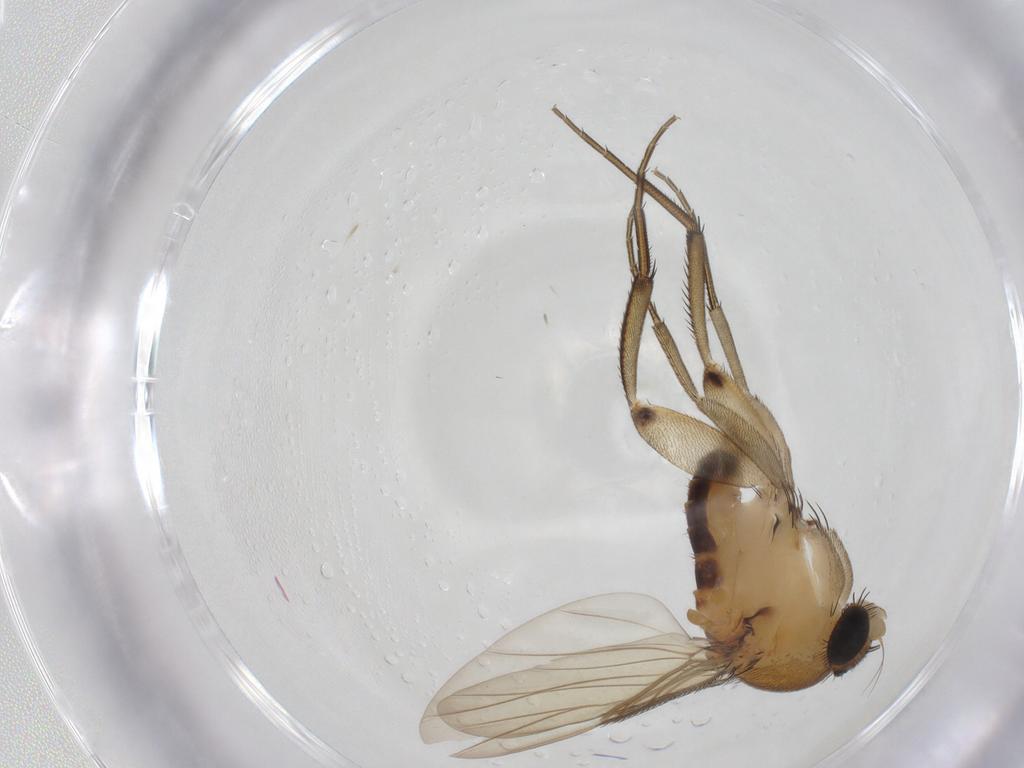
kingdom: Animalia
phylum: Arthropoda
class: Insecta
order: Diptera
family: Phoridae
